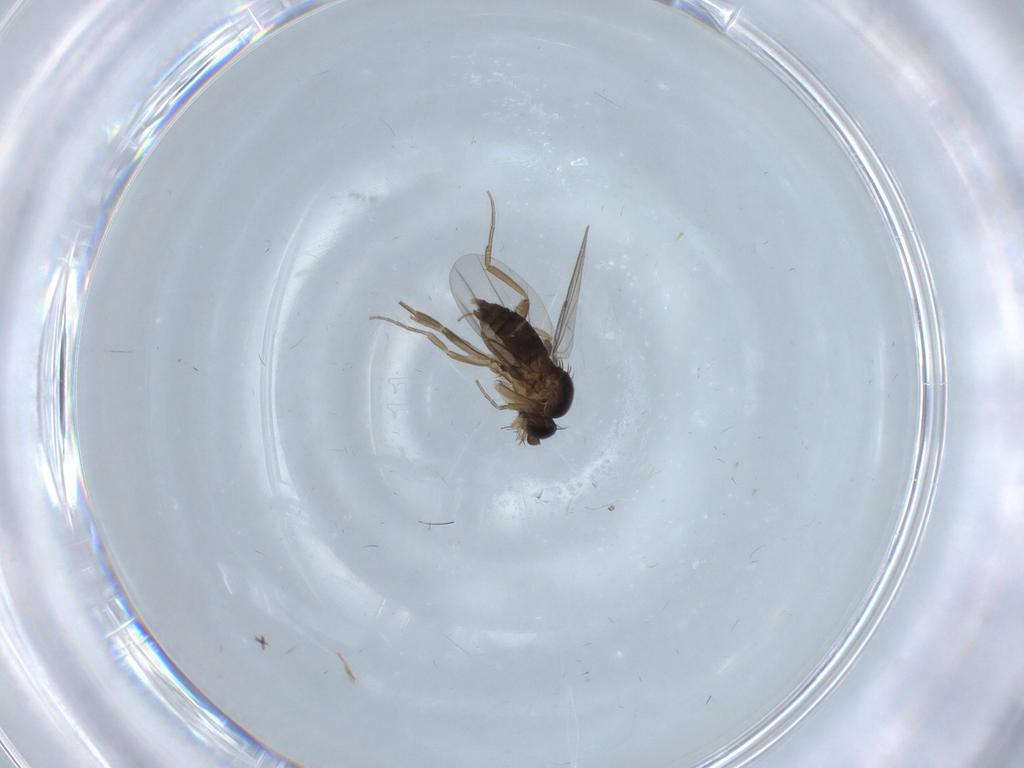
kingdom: Animalia
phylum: Arthropoda
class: Insecta
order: Diptera
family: Phoridae
